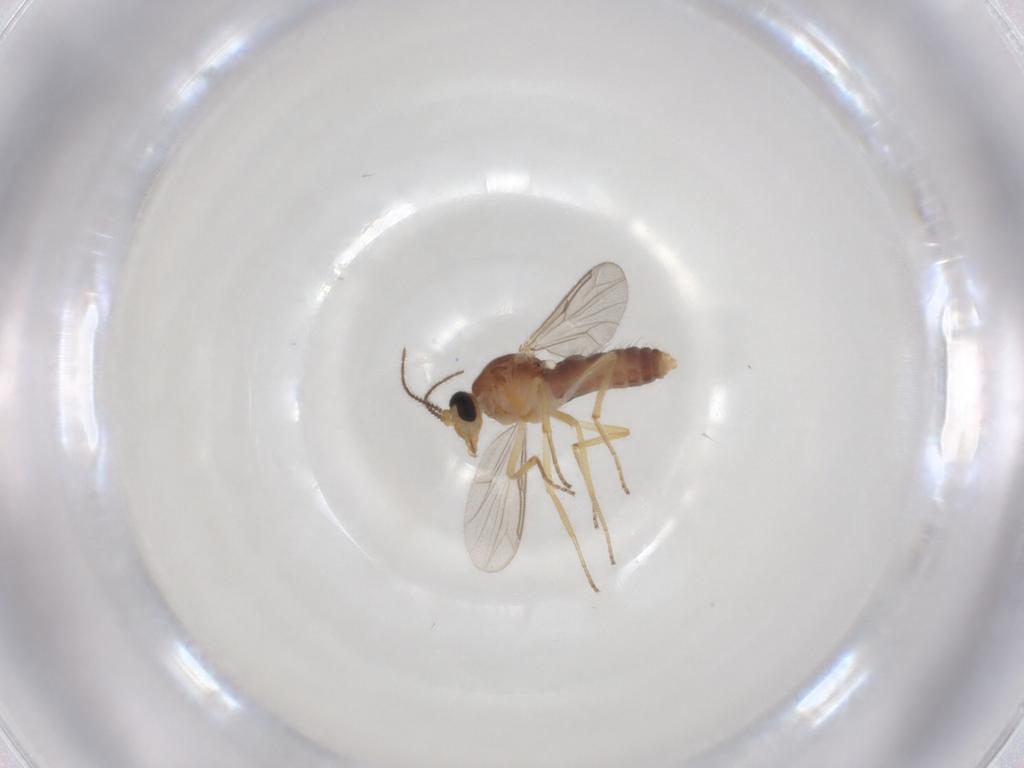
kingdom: Animalia
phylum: Arthropoda
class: Insecta
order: Diptera
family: Ceratopogonidae
